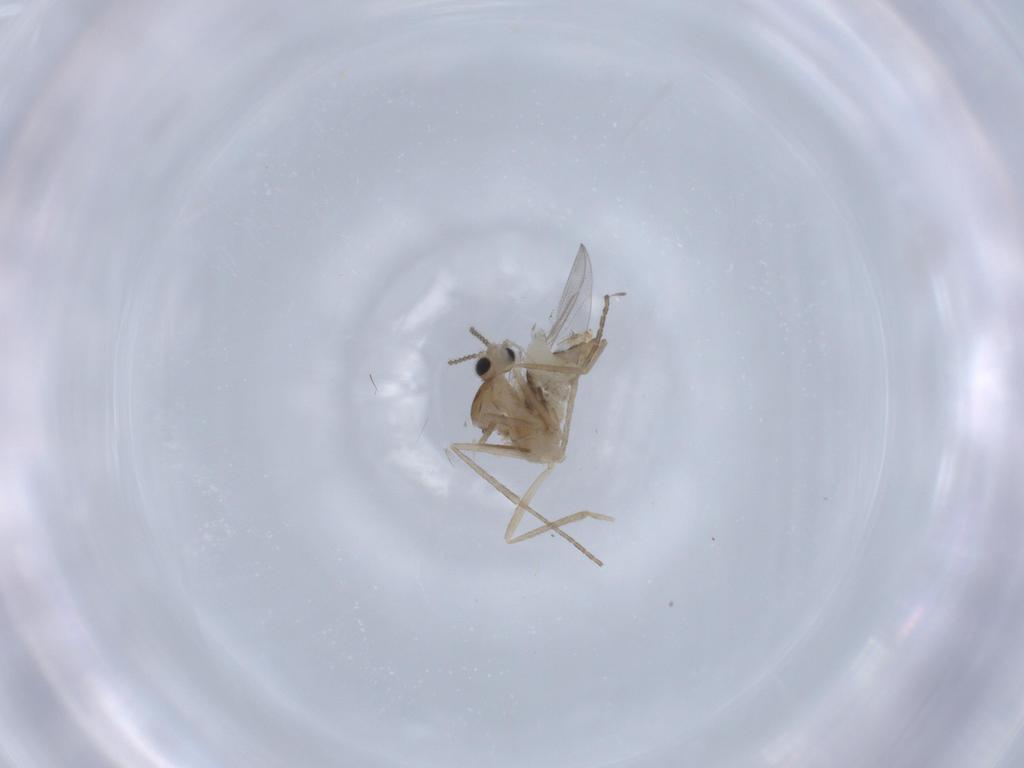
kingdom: Animalia
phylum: Arthropoda
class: Insecta
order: Diptera
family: Cecidomyiidae
